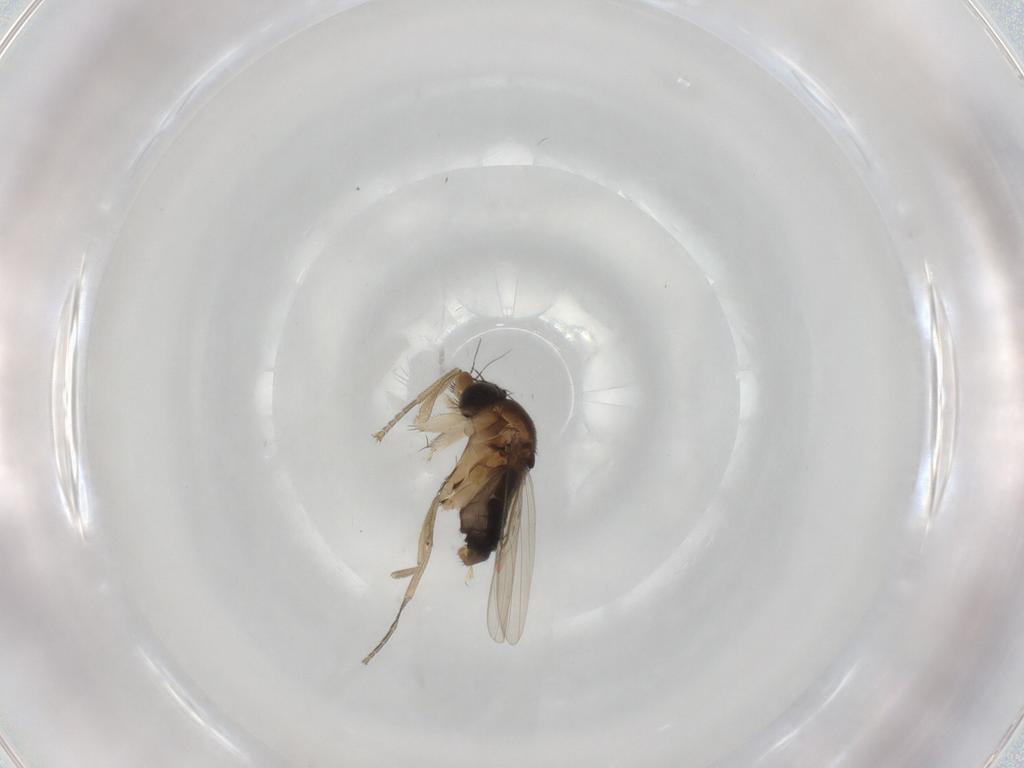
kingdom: Animalia
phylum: Arthropoda
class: Insecta
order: Diptera
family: Phoridae
